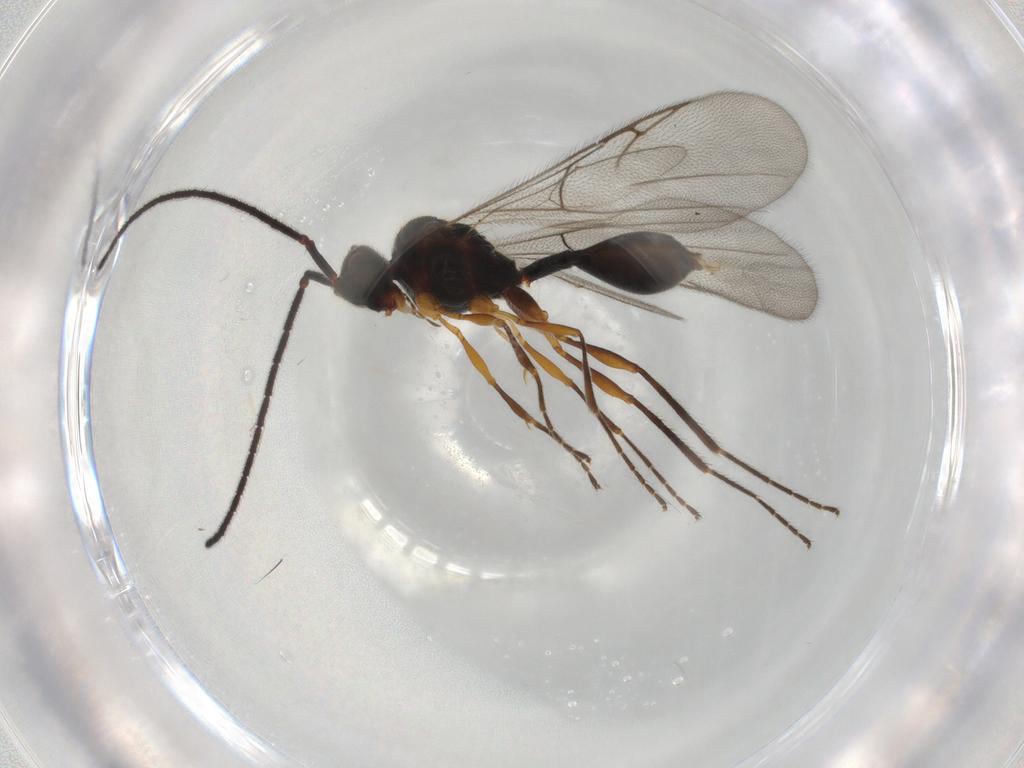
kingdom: Animalia
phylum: Arthropoda
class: Insecta
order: Hymenoptera
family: Diapriidae
